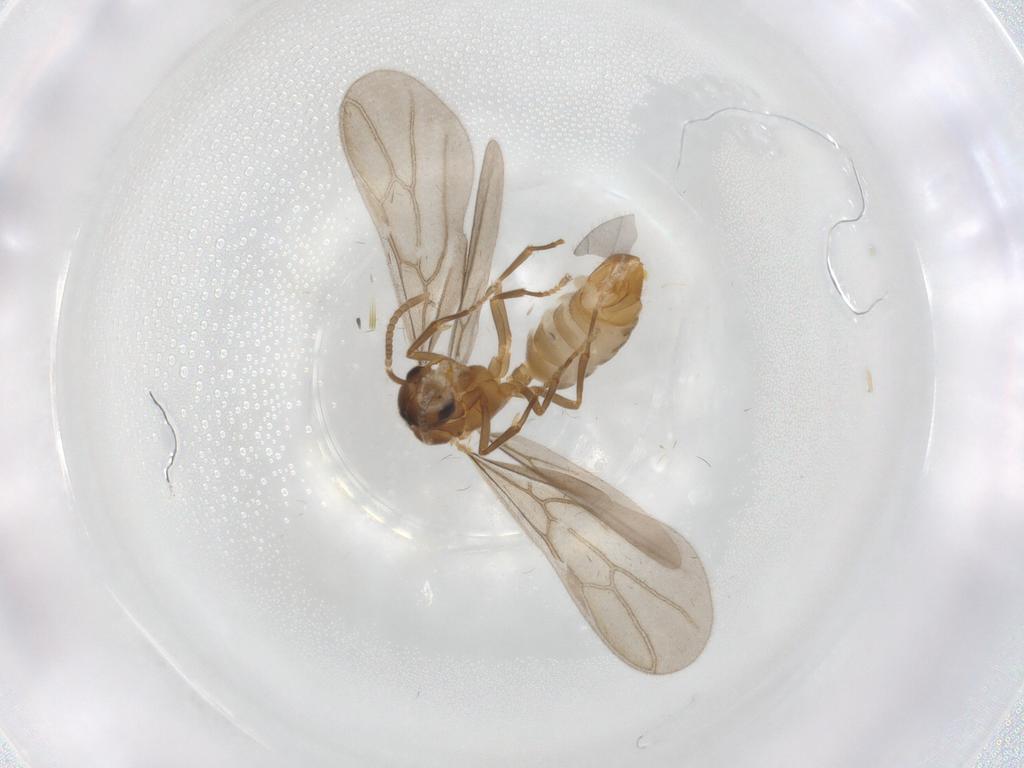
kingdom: Animalia
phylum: Arthropoda
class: Insecta
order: Hymenoptera
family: Formicidae
